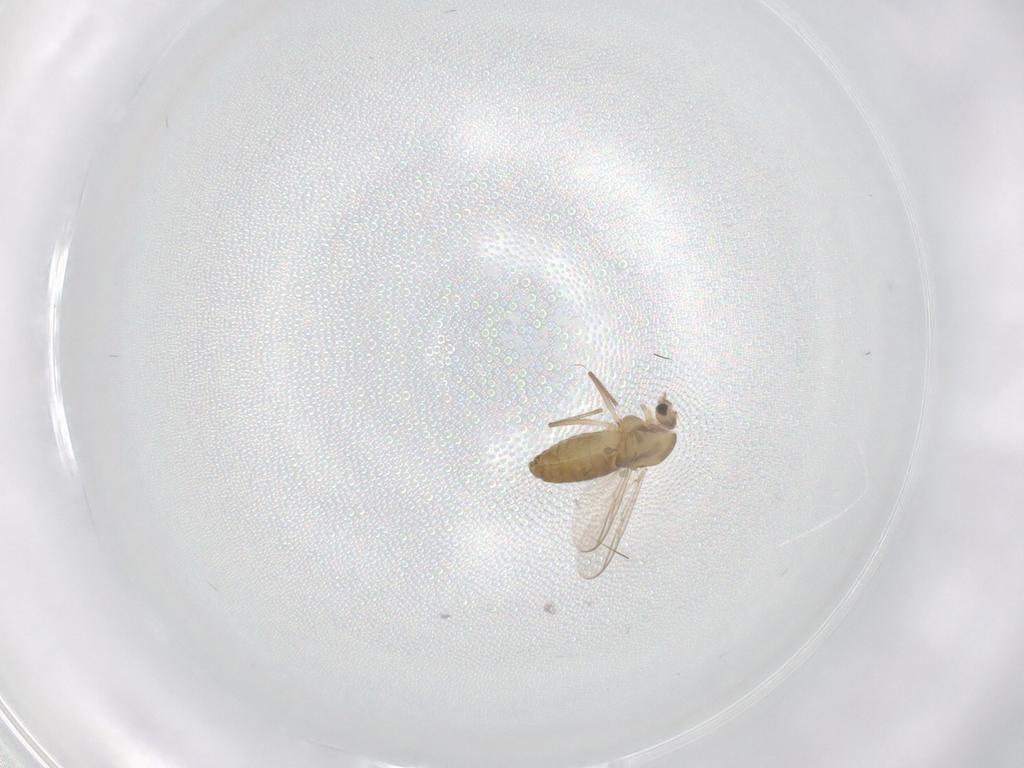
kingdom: Animalia
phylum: Arthropoda
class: Insecta
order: Diptera
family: Chironomidae
